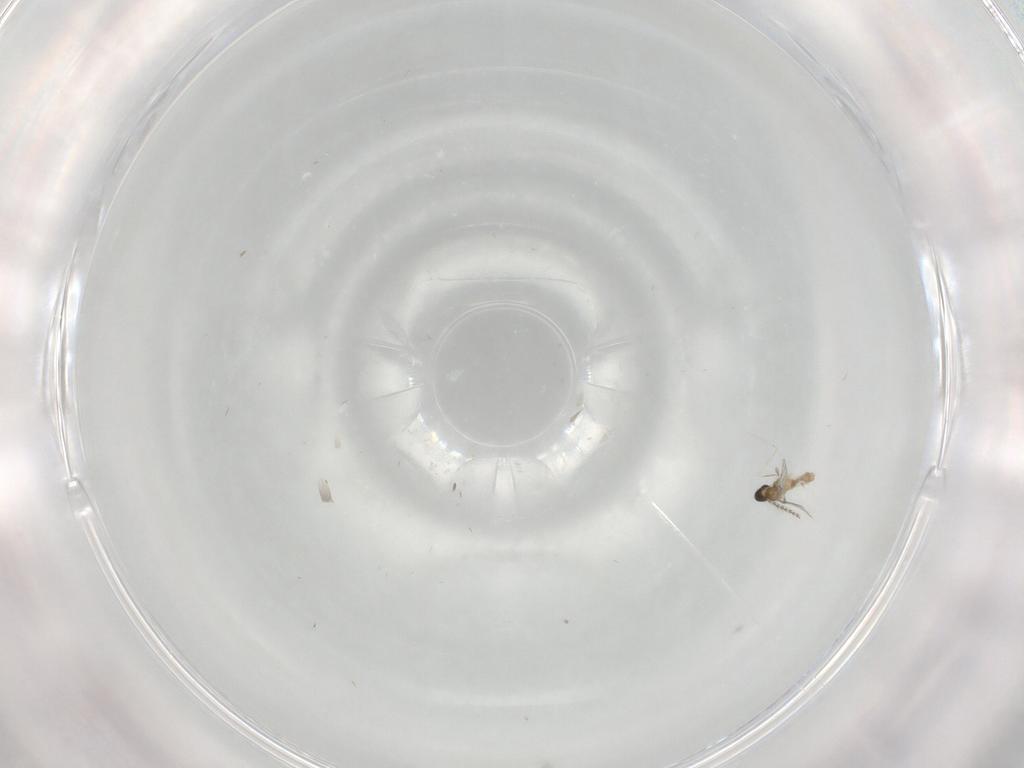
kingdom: Animalia
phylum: Arthropoda
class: Insecta
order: Diptera
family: Cecidomyiidae
